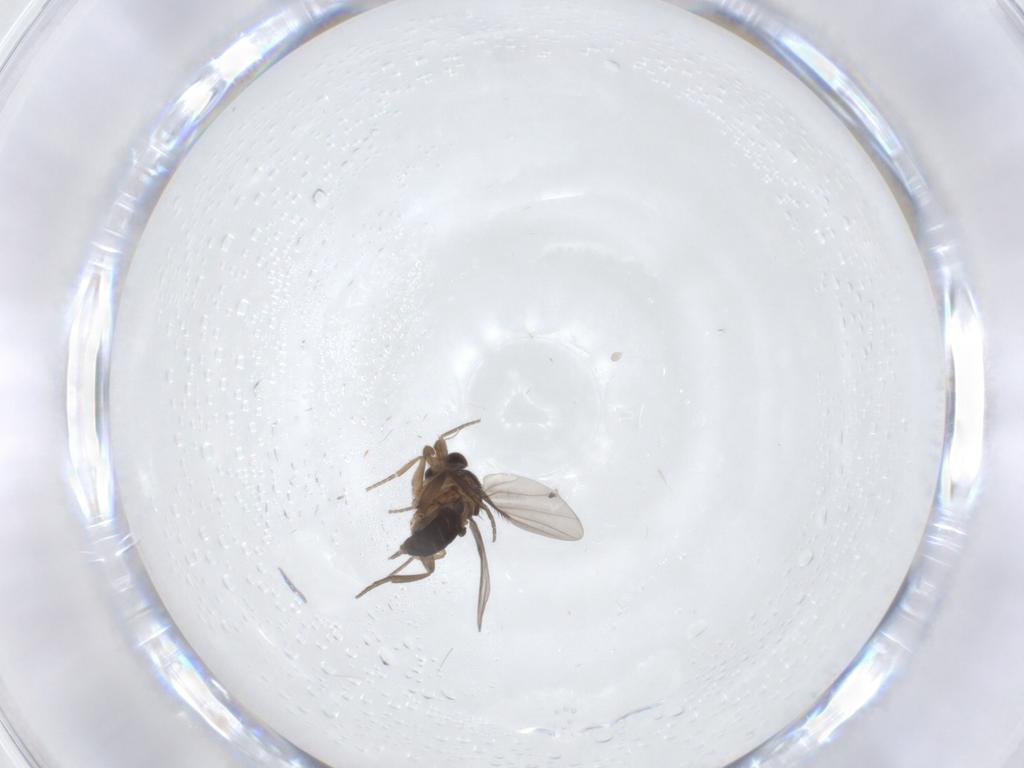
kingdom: Animalia
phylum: Arthropoda
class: Insecta
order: Diptera
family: Phoridae
